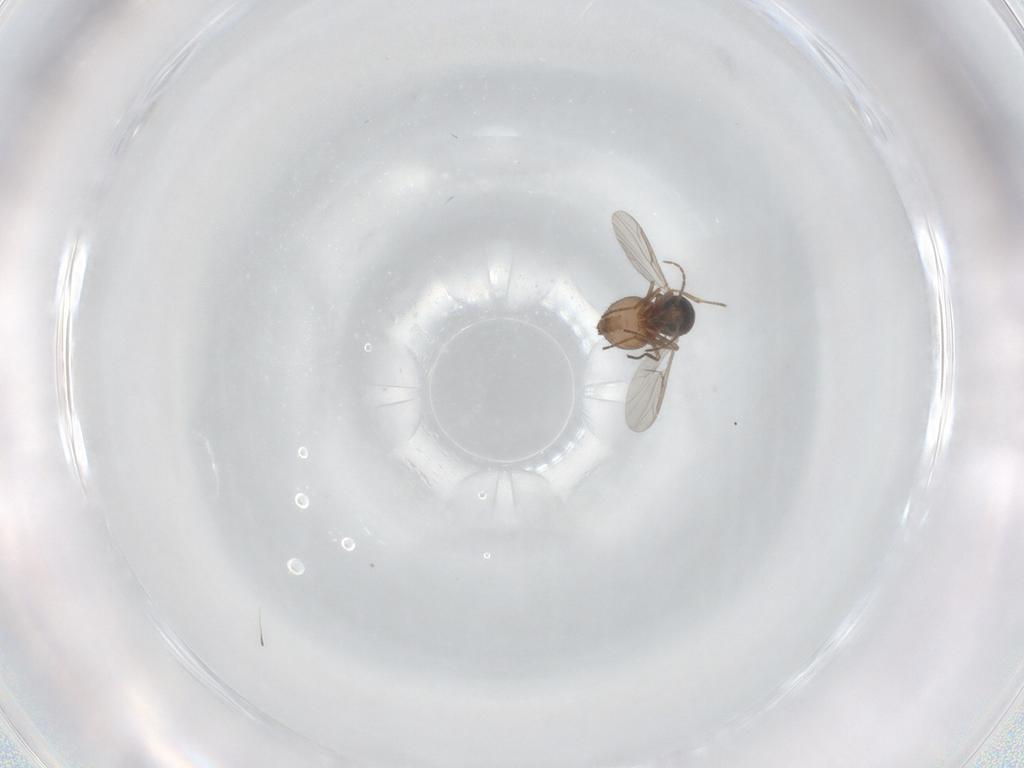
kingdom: Animalia
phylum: Arthropoda
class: Insecta
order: Diptera
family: Ceratopogonidae
